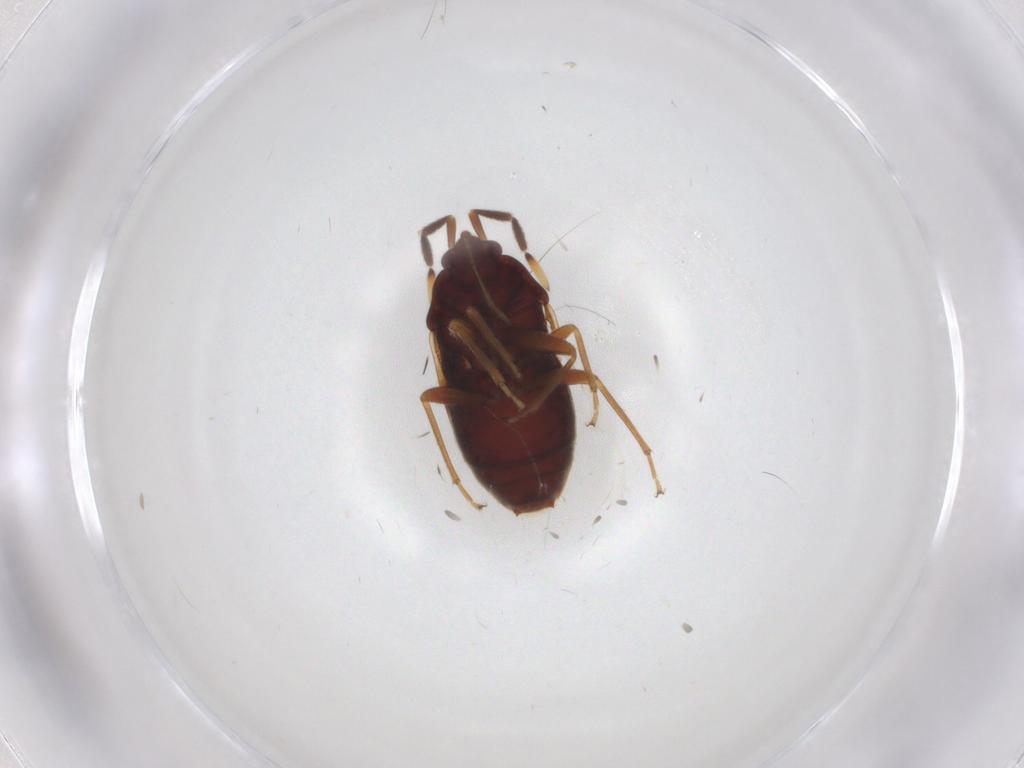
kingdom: Animalia
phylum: Arthropoda
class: Insecta
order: Hemiptera
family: Rhyparochromidae
